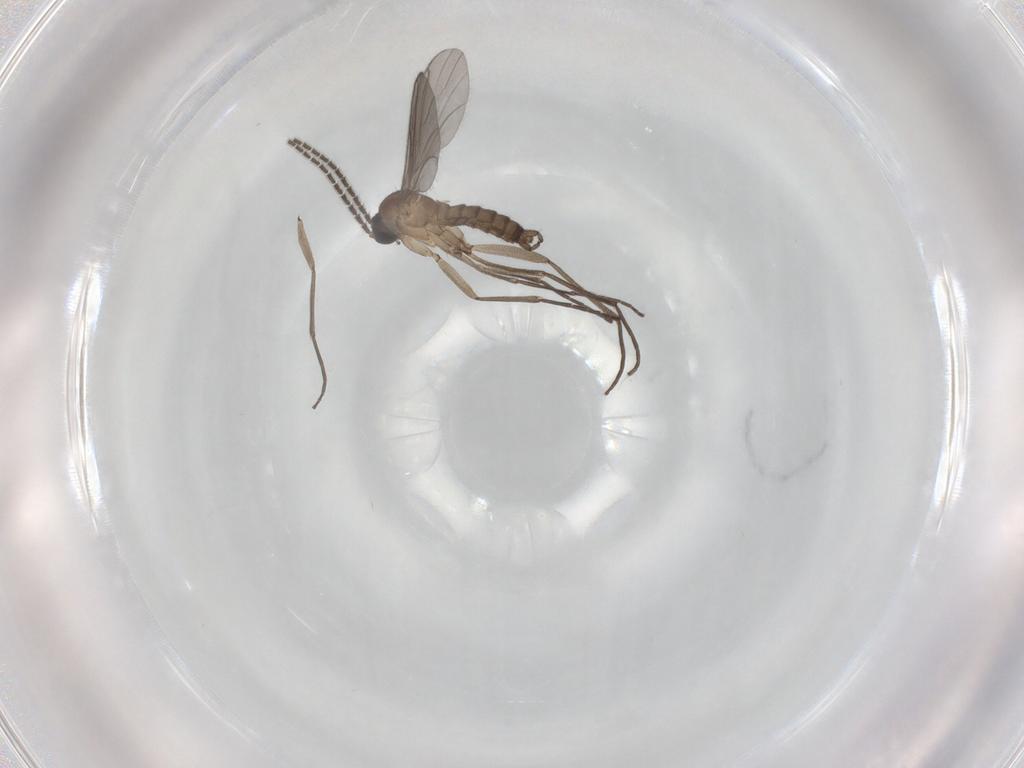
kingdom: Animalia
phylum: Arthropoda
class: Insecta
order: Diptera
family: Sciaridae
